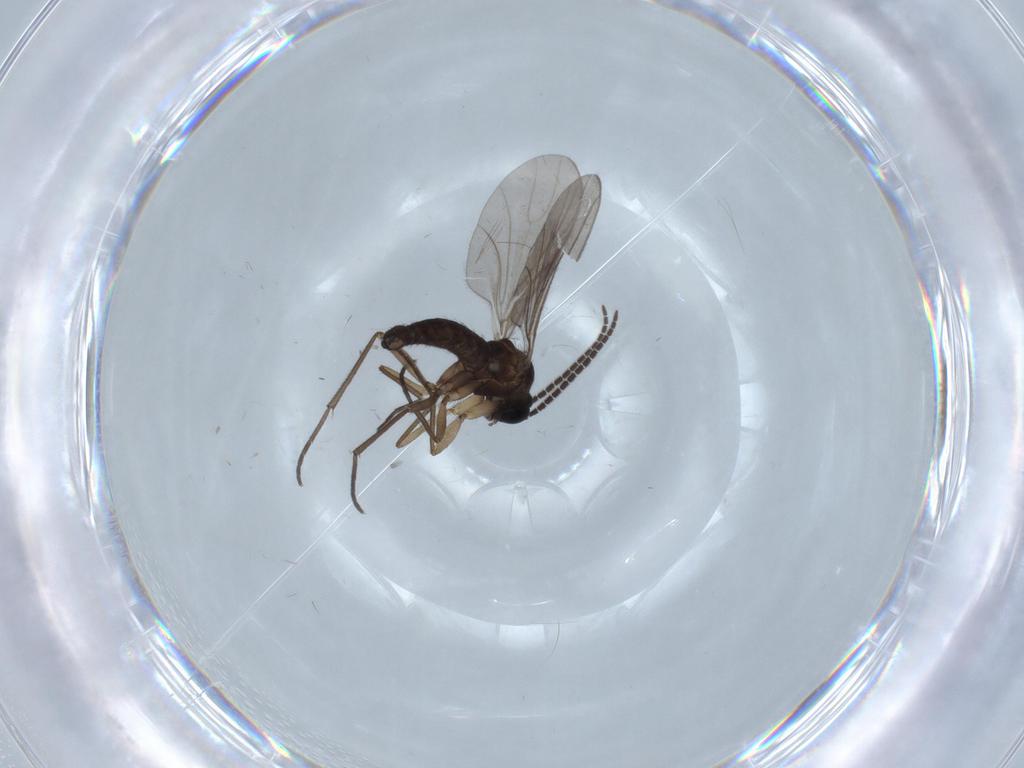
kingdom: Animalia
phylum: Arthropoda
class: Insecta
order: Diptera
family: Sciaridae
